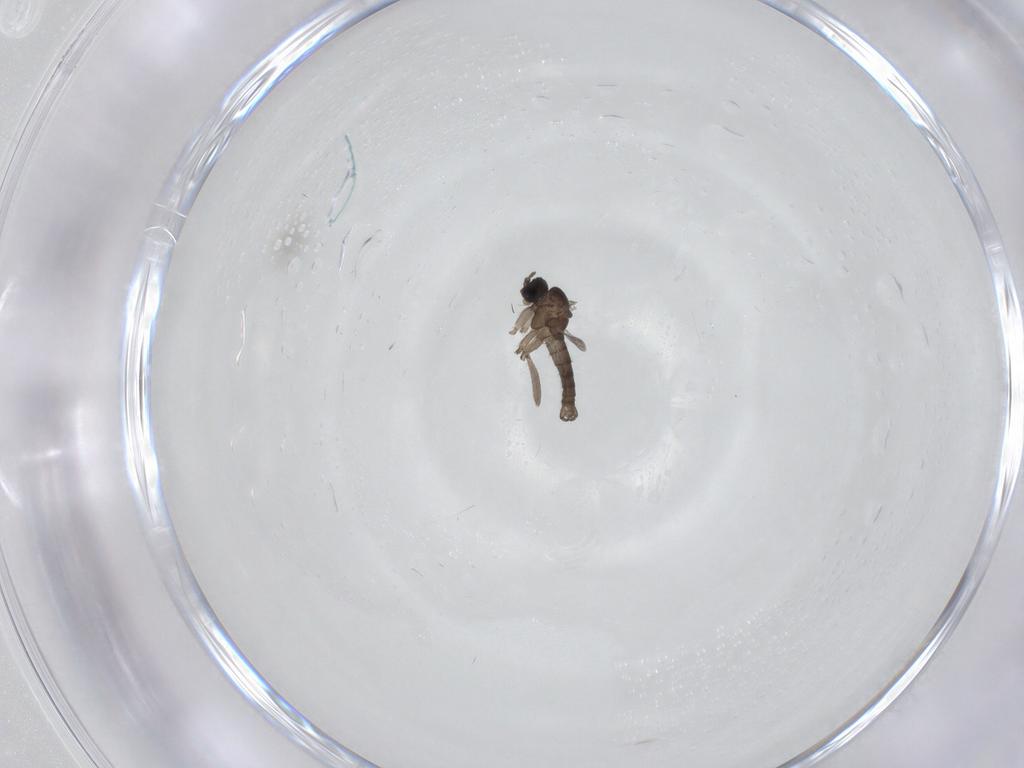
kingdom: Animalia
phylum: Arthropoda
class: Insecta
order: Diptera
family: Sciaridae
